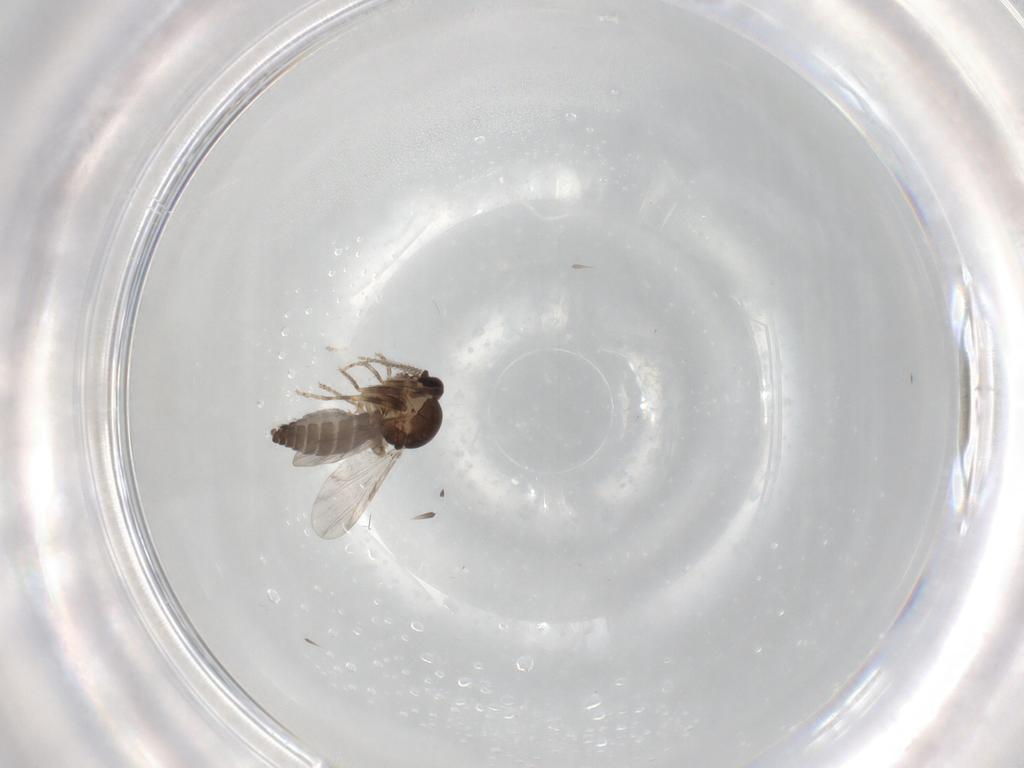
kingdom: Animalia
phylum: Arthropoda
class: Insecta
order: Diptera
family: Ceratopogonidae
